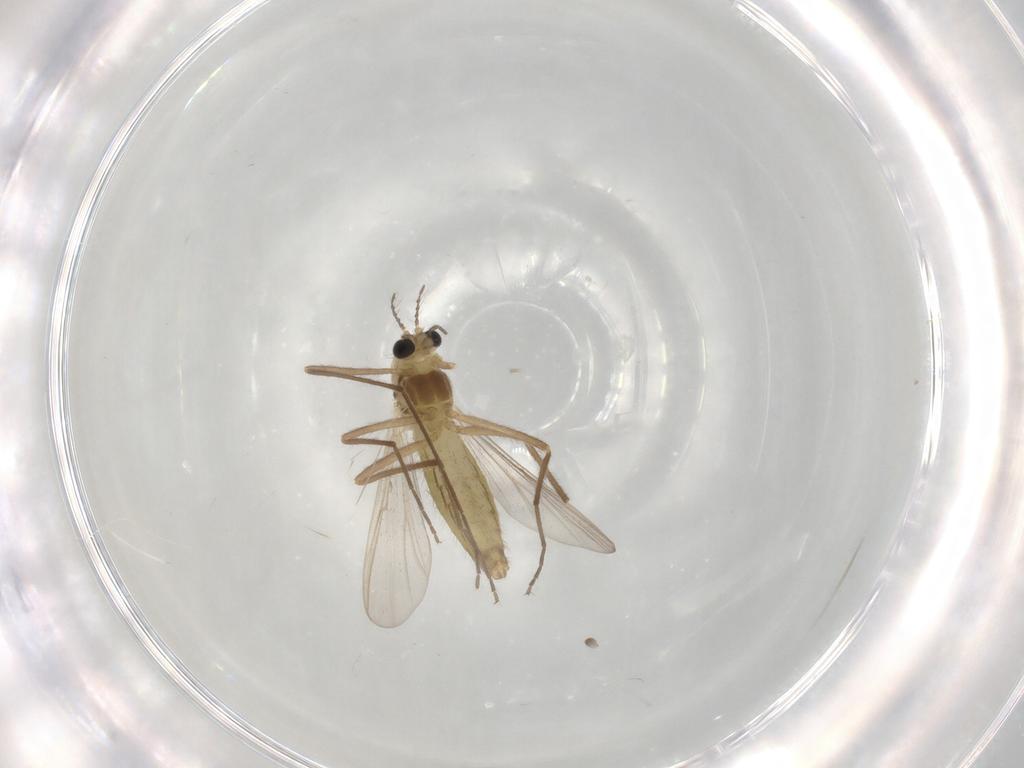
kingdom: Animalia
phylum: Arthropoda
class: Insecta
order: Diptera
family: Chironomidae
